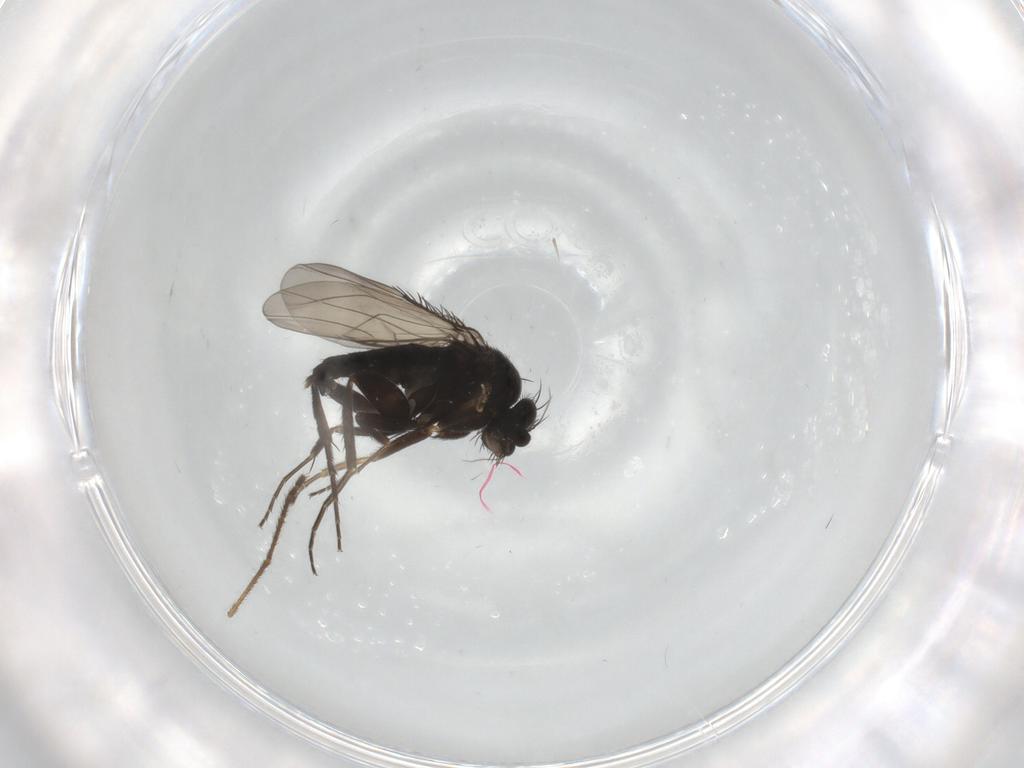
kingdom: Animalia
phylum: Arthropoda
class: Insecta
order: Diptera
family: Phoridae
